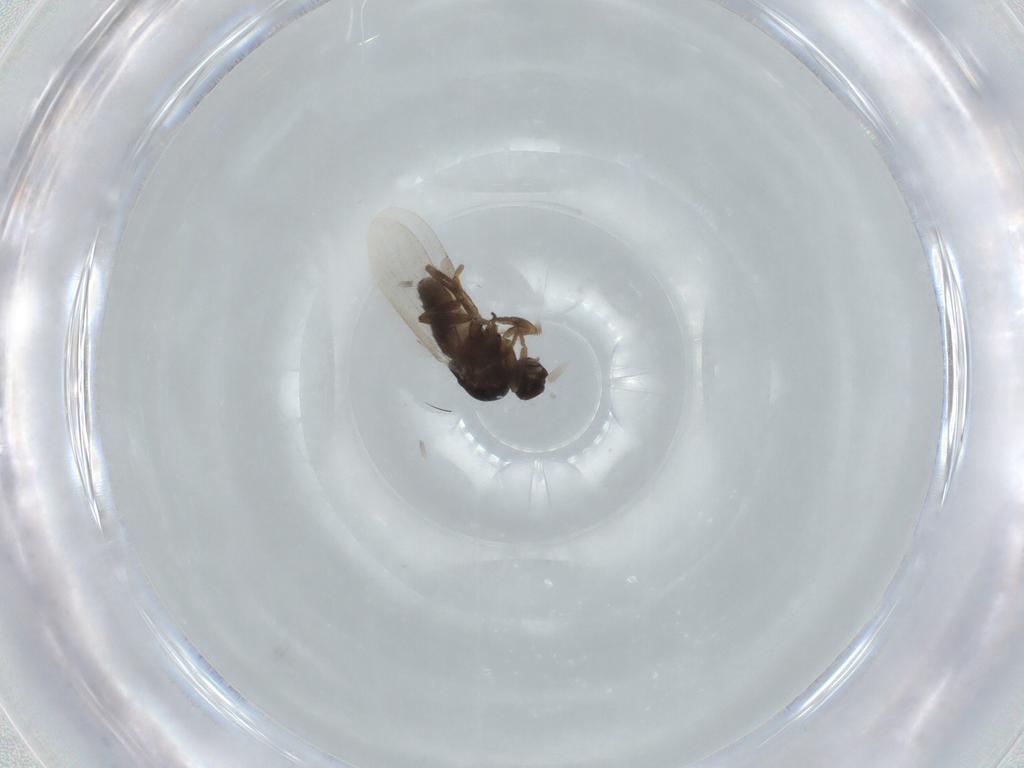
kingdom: Animalia
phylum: Arthropoda
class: Insecta
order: Diptera
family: Platypezidae
